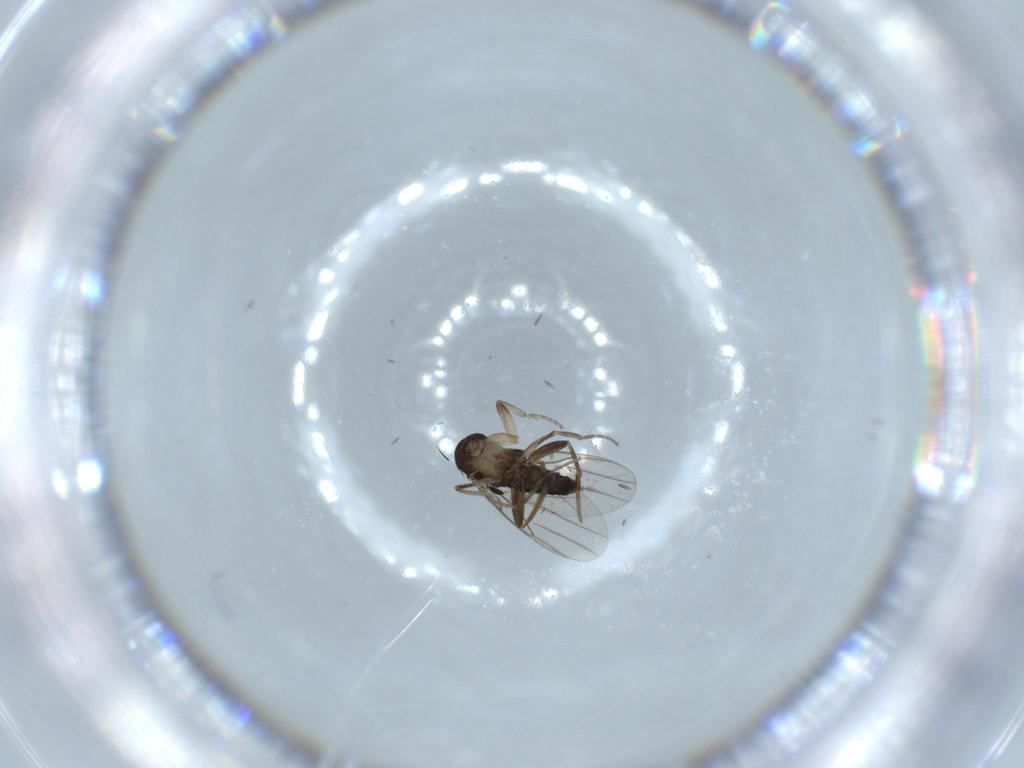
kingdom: Animalia
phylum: Arthropoda
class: Insecta
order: Diptera
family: Phoridae
